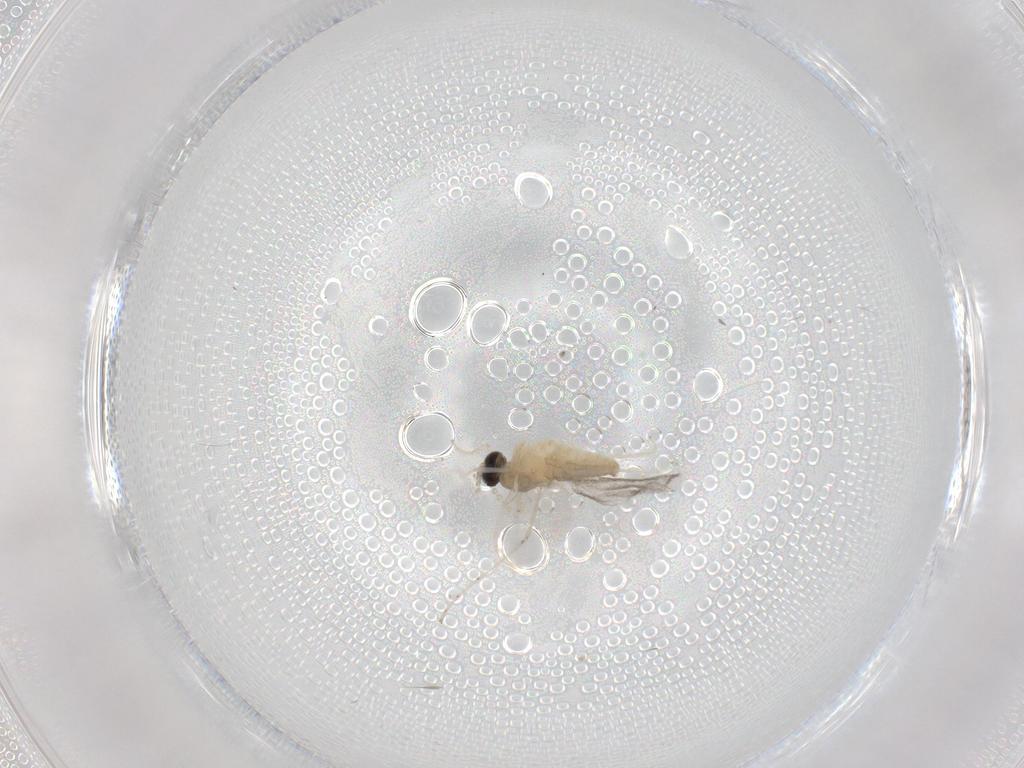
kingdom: Animalia
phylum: Arthropoda
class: Insecta
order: Diptera
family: Cecidomyiidae
